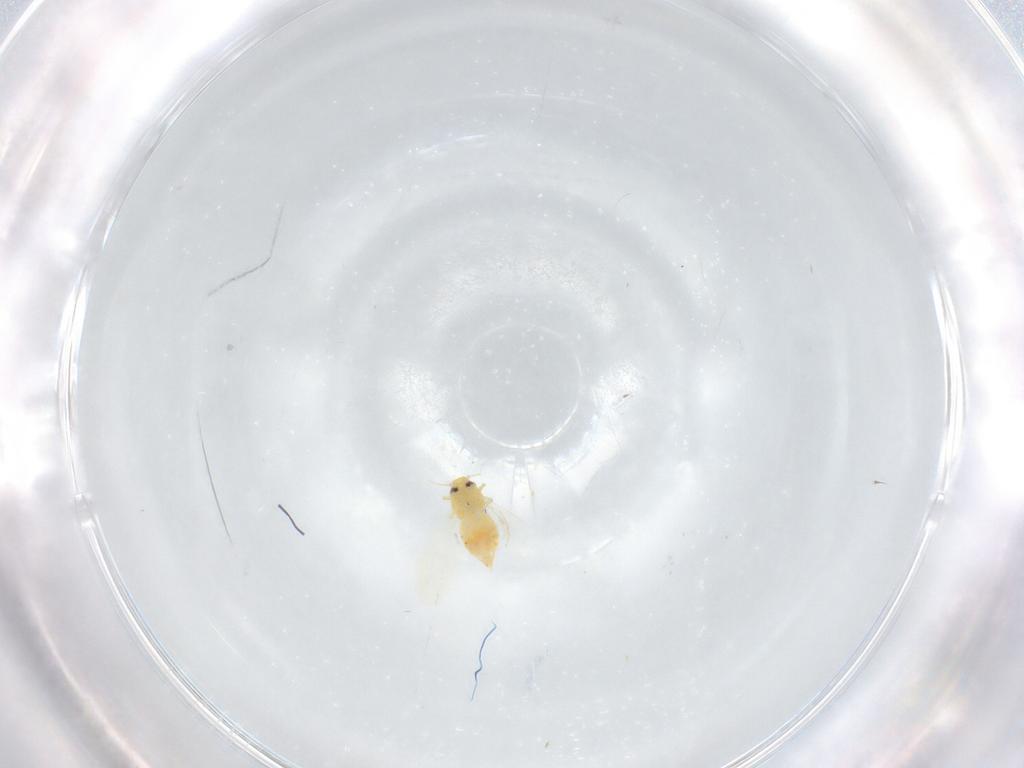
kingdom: Animalia
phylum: Arthropoda
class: Insecta
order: Hemiptera
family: Aleyrodidae
